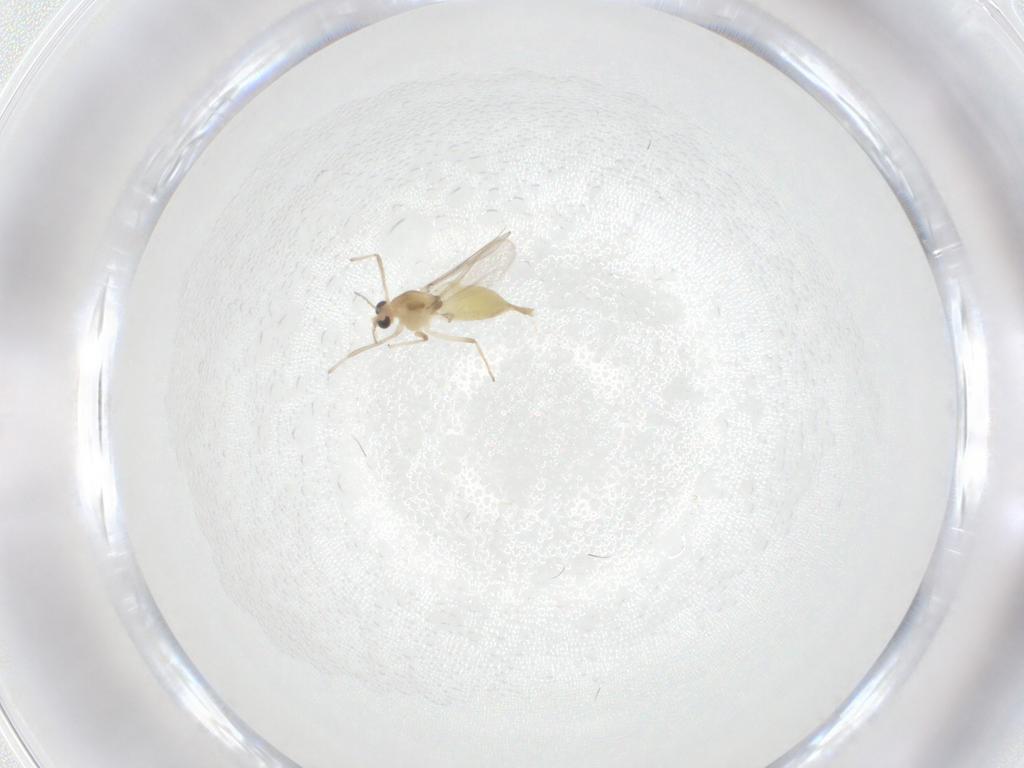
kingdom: Animalia
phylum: Arthropoda
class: Insecta
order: Diptera
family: Chironomidae
